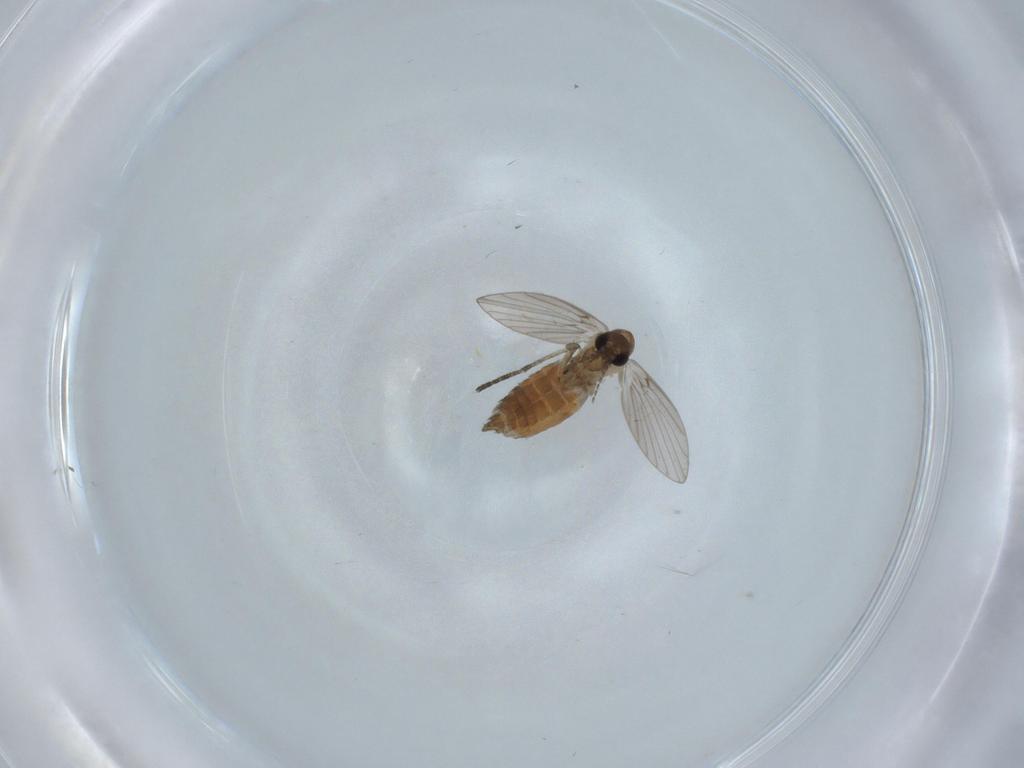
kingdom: Animalia
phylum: Arthropoda
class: Insecta
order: Diptera
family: Psychodidae
